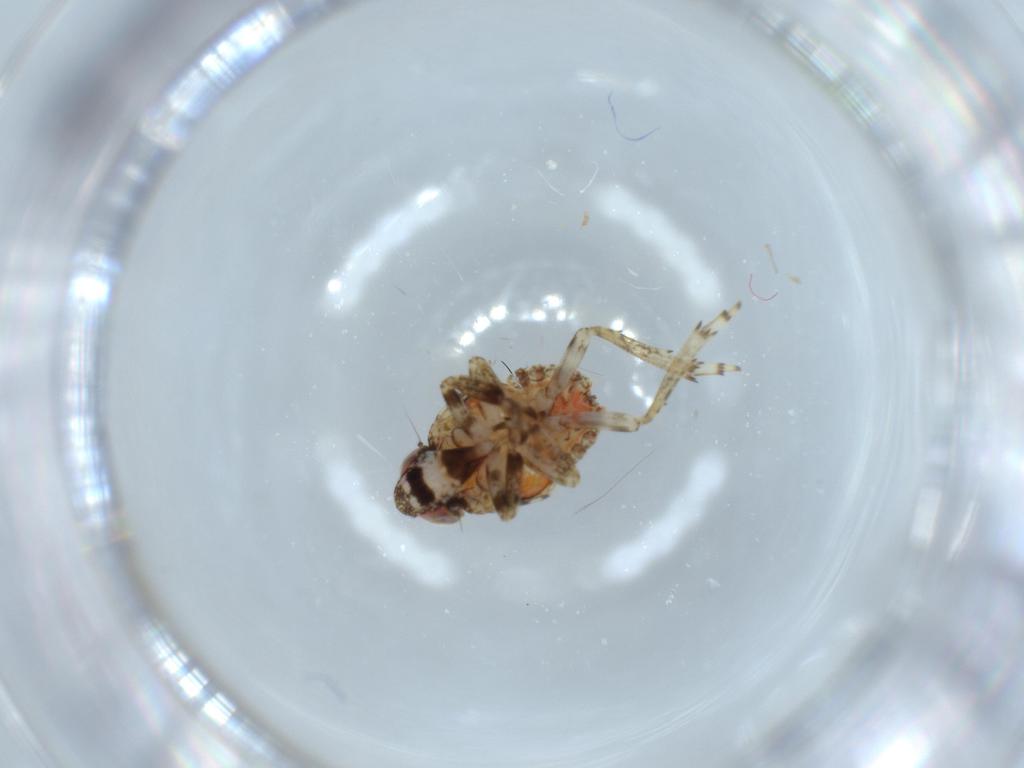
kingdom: Animalia
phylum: Arthropoda
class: Insecta
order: Hemiptera
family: Issidae
